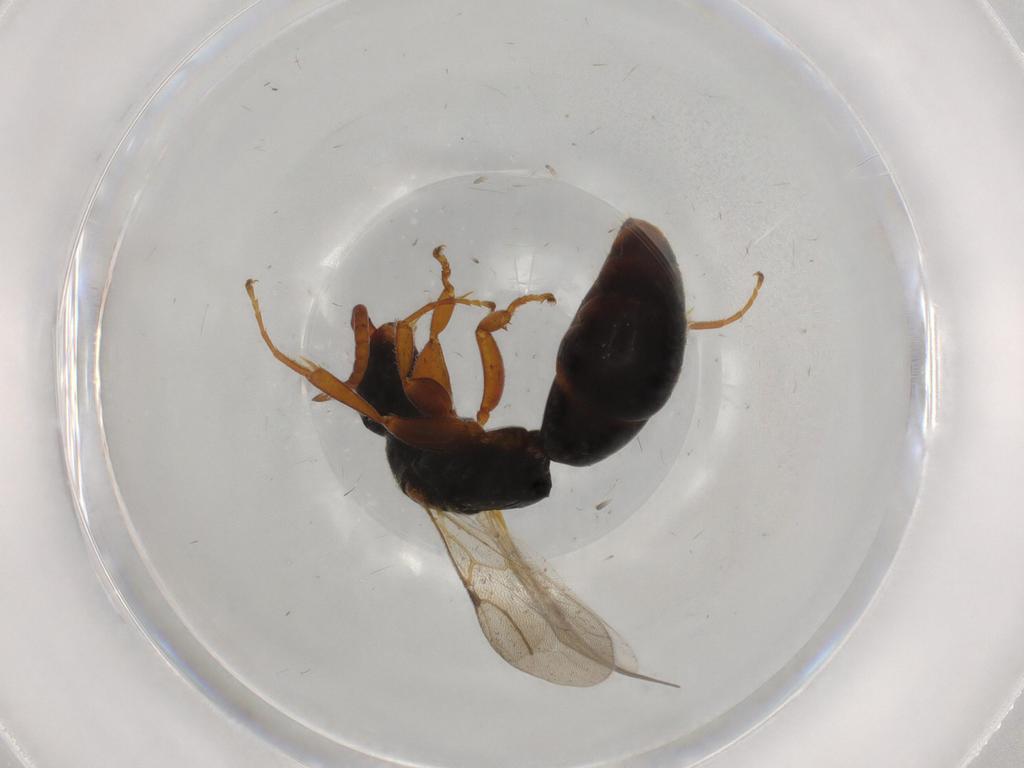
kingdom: Animalia
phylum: Arthropoda
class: Insecta
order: Hymenoptera
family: Bethylidae
